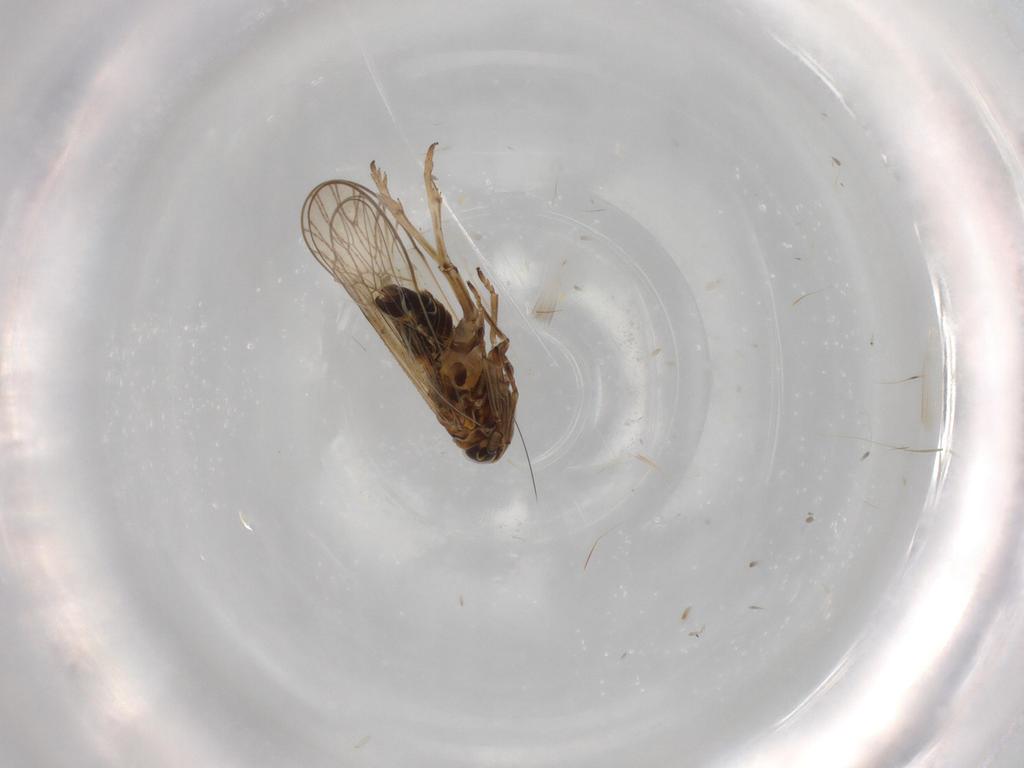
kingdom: Animalia
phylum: Arthropoda
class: Insecta
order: Hemiptera
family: Delphacidae
